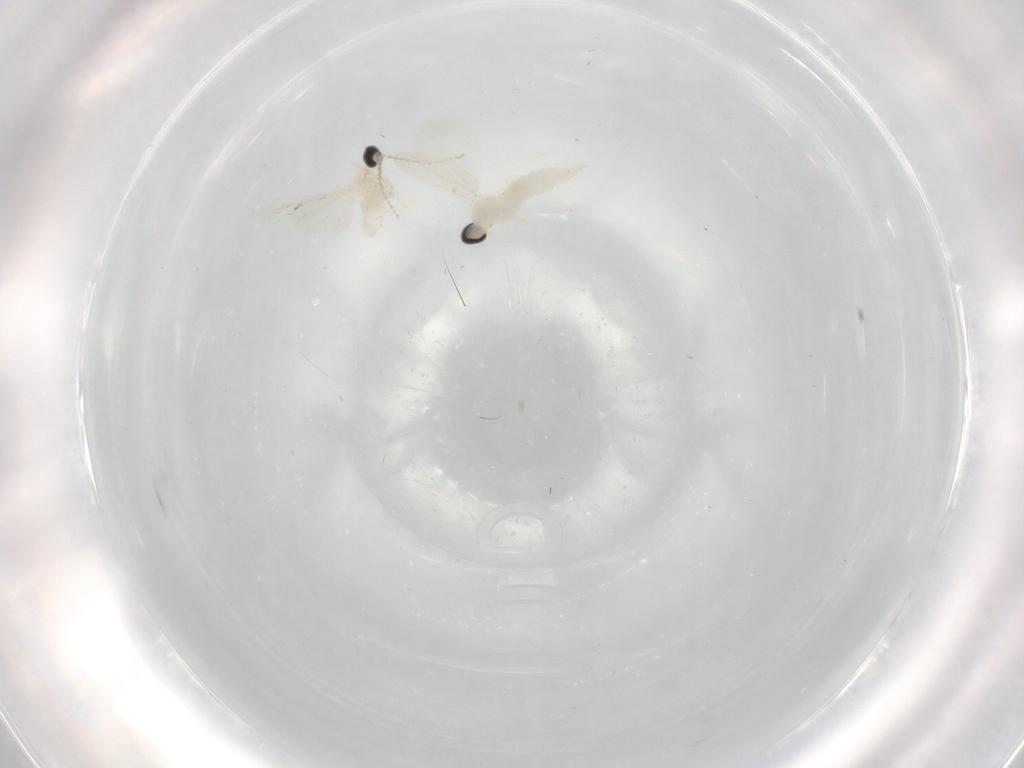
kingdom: Animalia
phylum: Arthropoda
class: Insecta
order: Diptera
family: Cecidomyiidae
